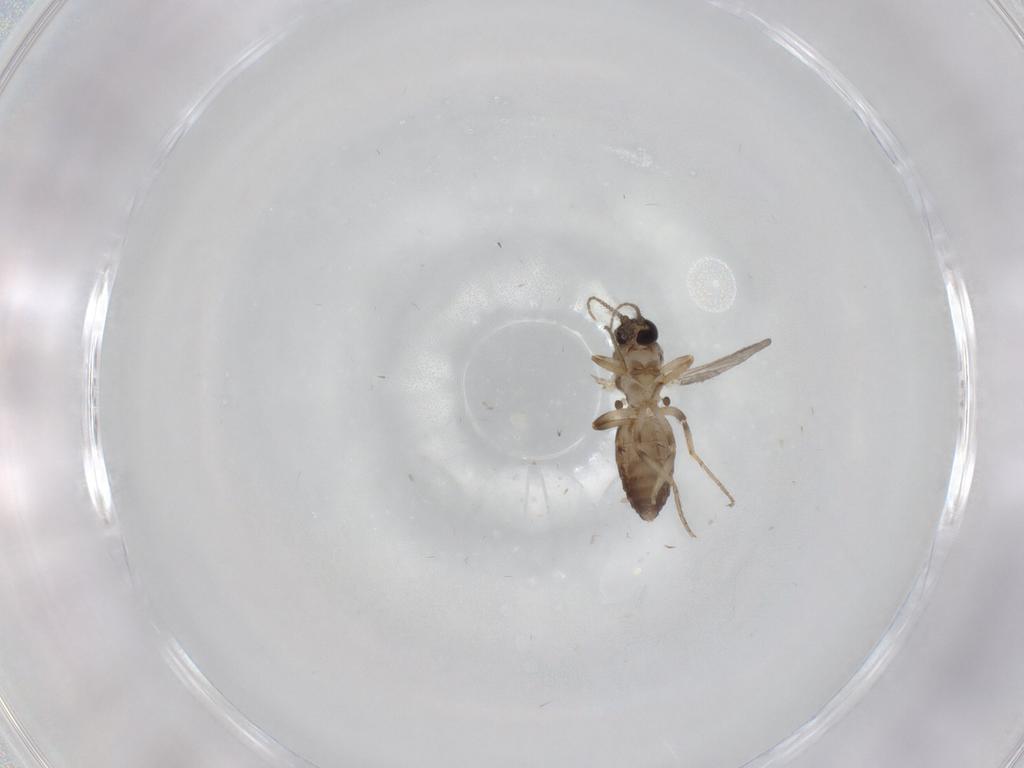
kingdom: Animalia
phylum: Arthropoda
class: Insecta
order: Diptera
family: Ceratopogonidae
